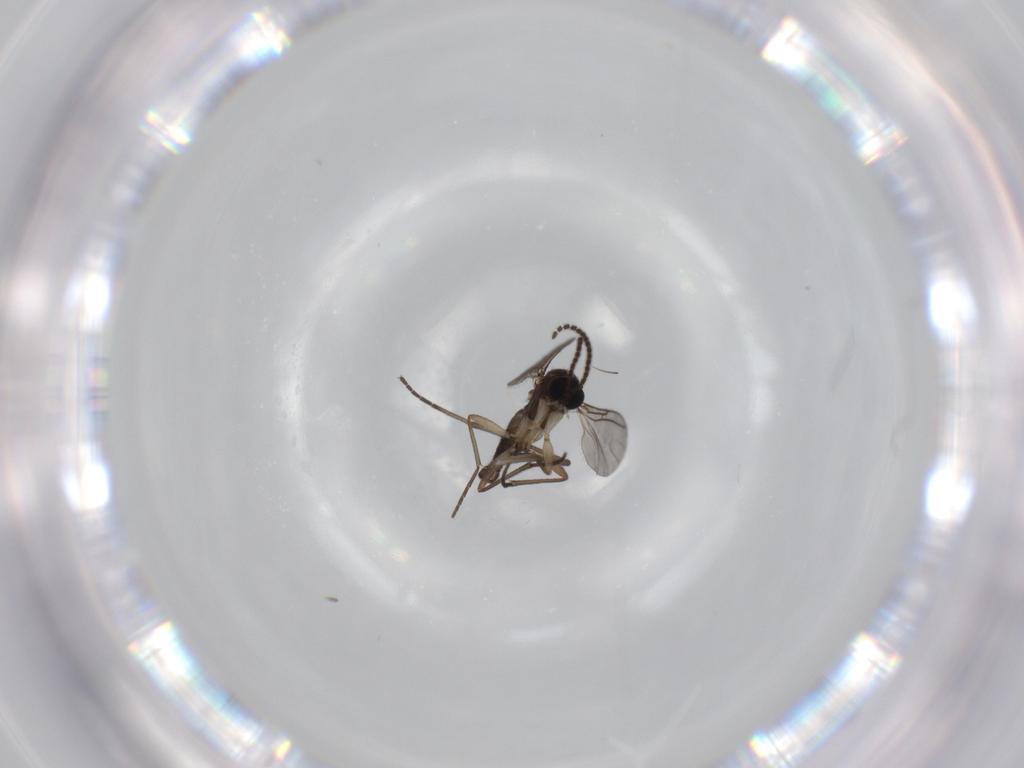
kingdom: Animalia
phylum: Arthropoda
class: Insecta
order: Diptera
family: Sciaridae
